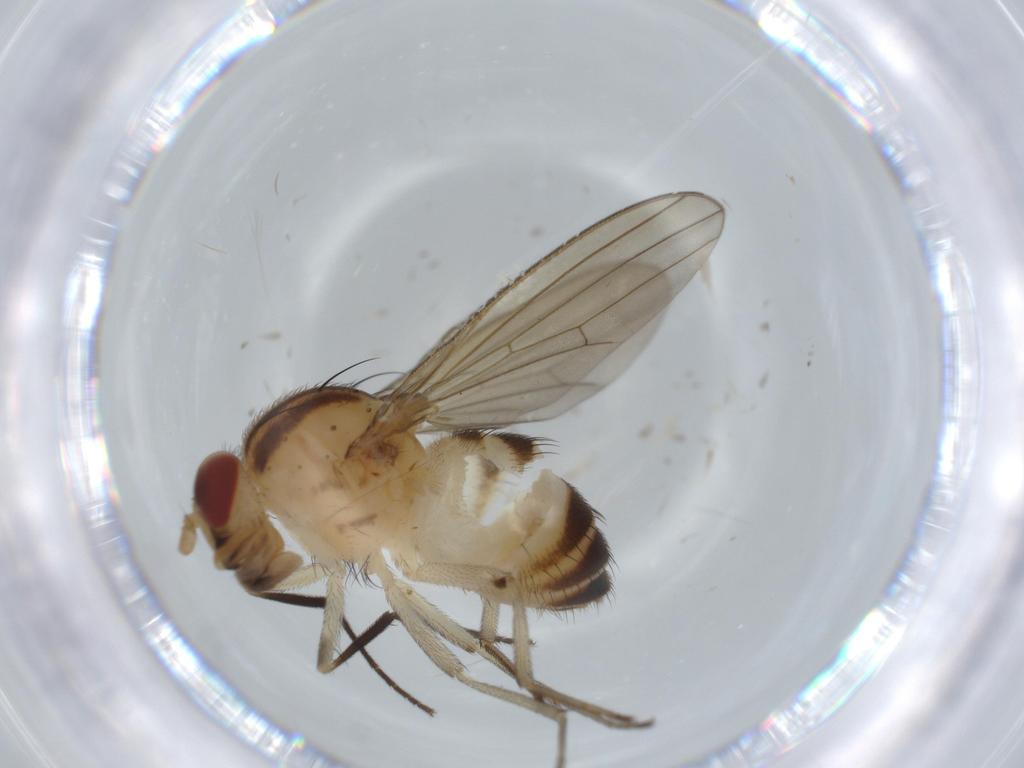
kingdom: Animalia
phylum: Arthropoda
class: Insecta
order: Diptera
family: Lauxaniidae
